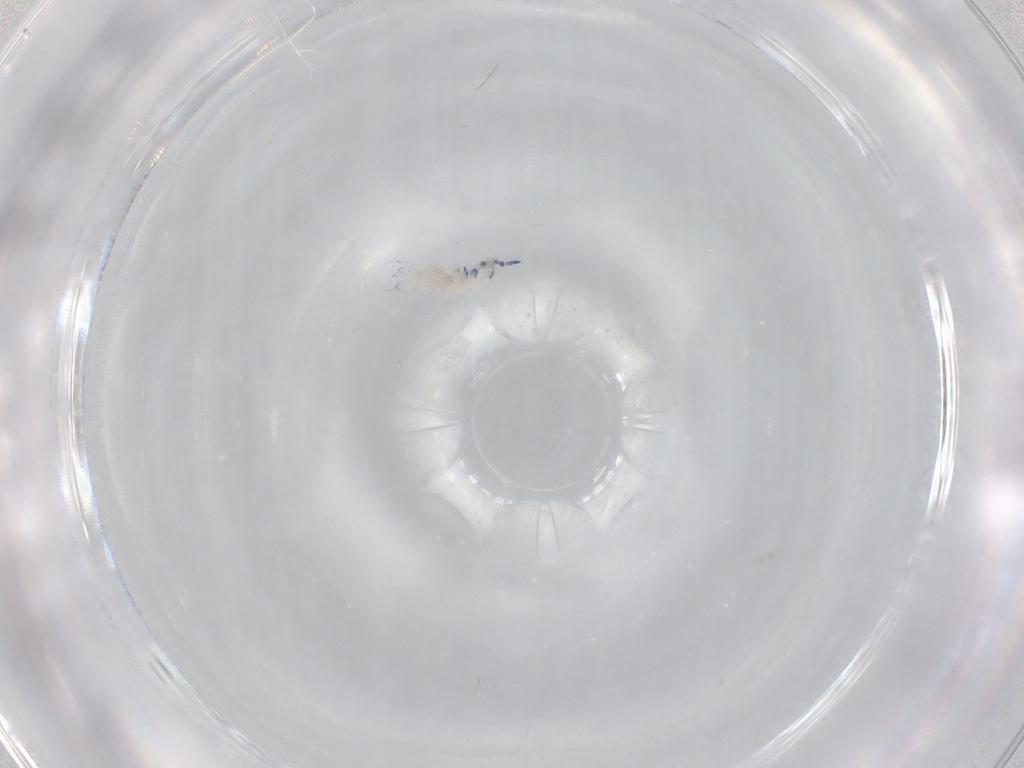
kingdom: Animalia
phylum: Arthropoda
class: Collembola
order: Entomobryomorpha
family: Entomobryidae
